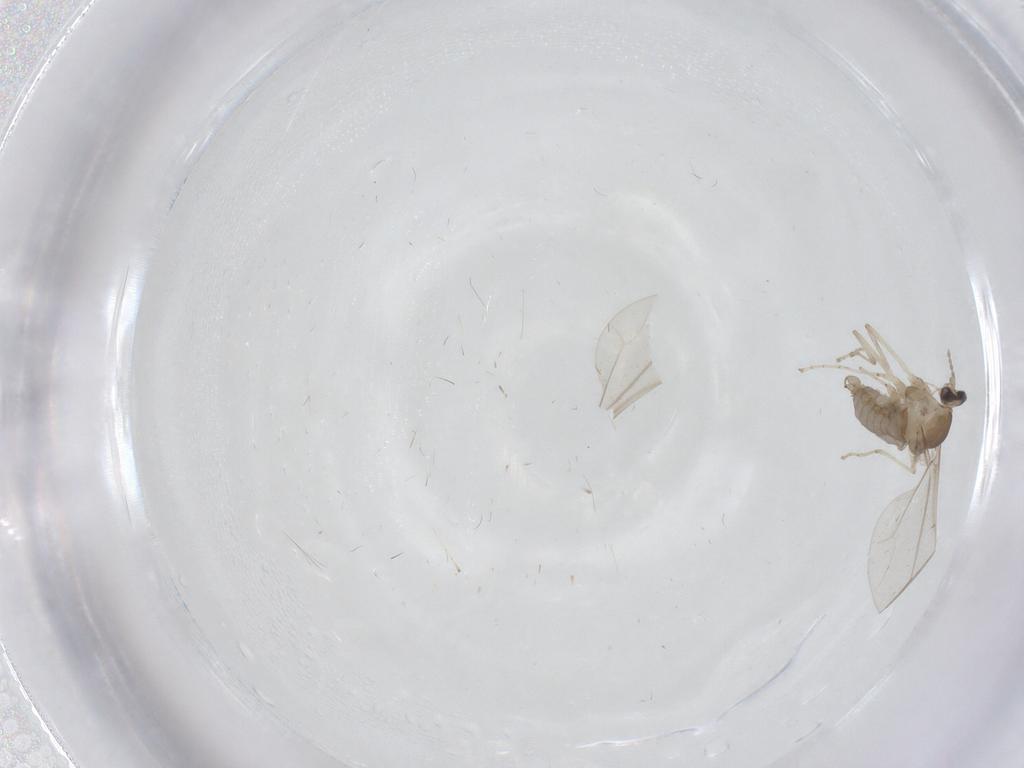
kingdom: Animalia
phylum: Arthropoda
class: Insecta
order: Diptera
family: Cecidomyiidae
